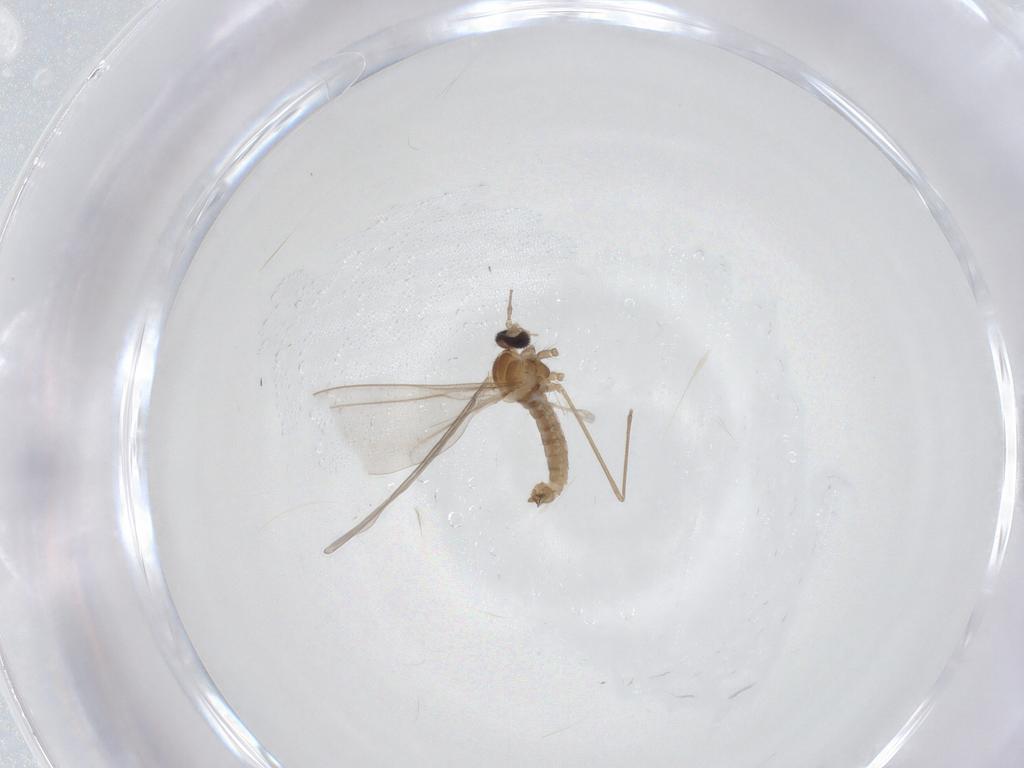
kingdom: Animalia
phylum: Arthropoda
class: Insecta
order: Diptera
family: Cecidomyiidae
